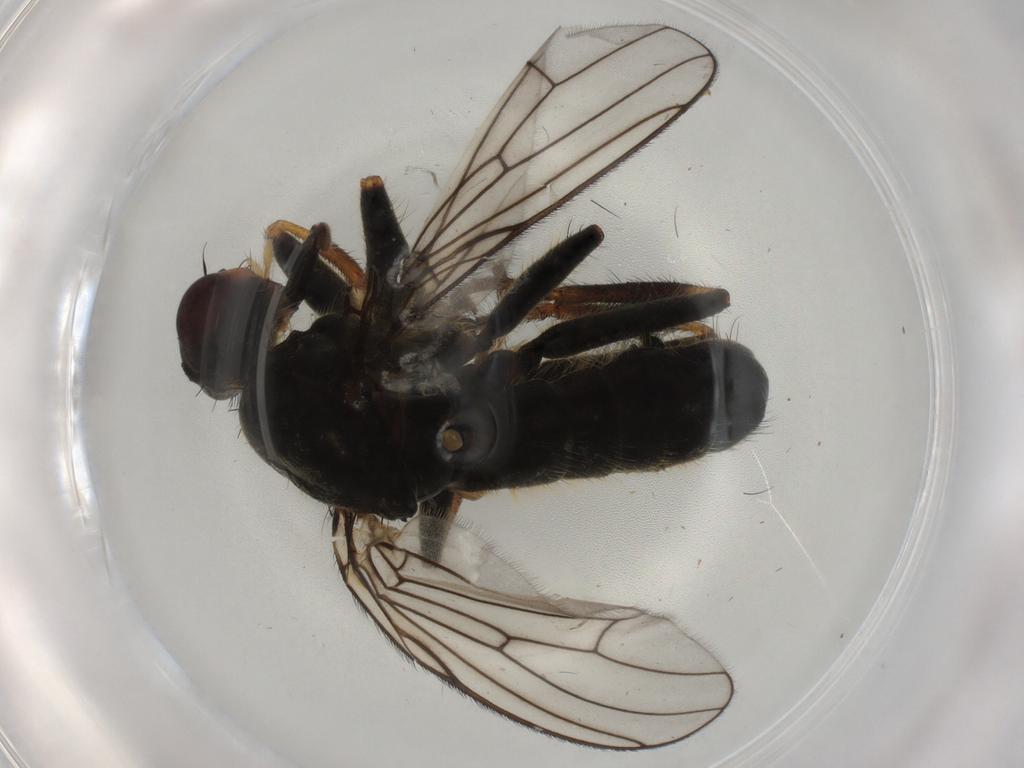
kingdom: Animalia
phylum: Arthropoda
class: Insecta
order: Diptera
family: Scathophagidae
